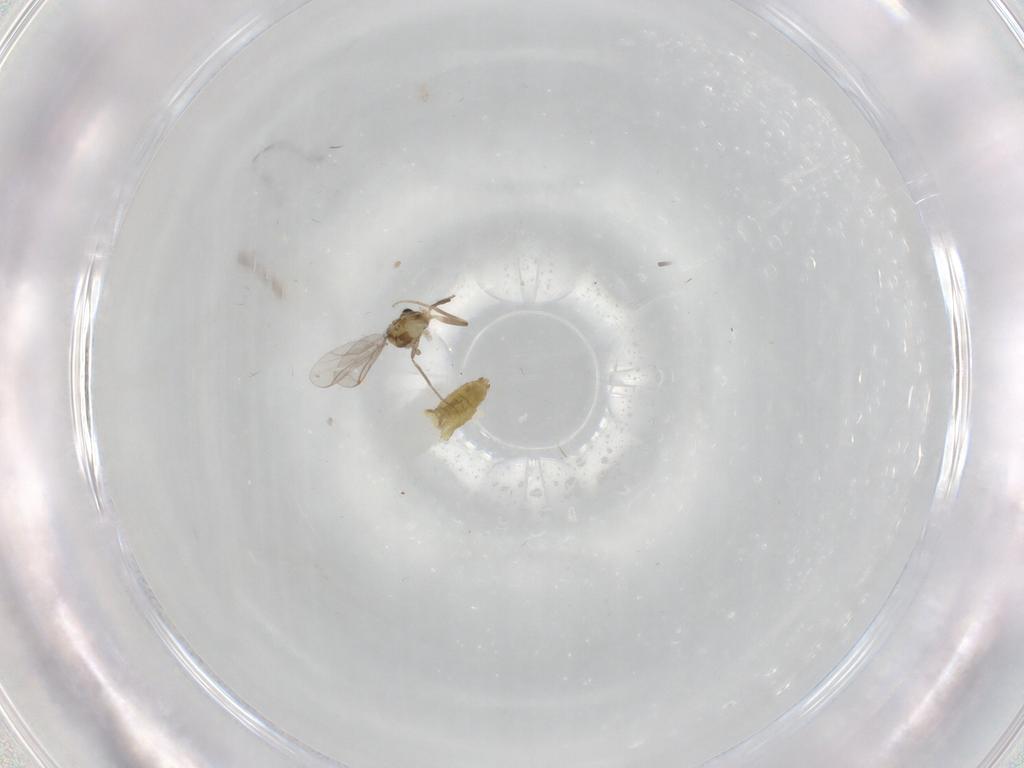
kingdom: Animalia
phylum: Arthropoda
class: Insecta
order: Diptera
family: Chironomidae
